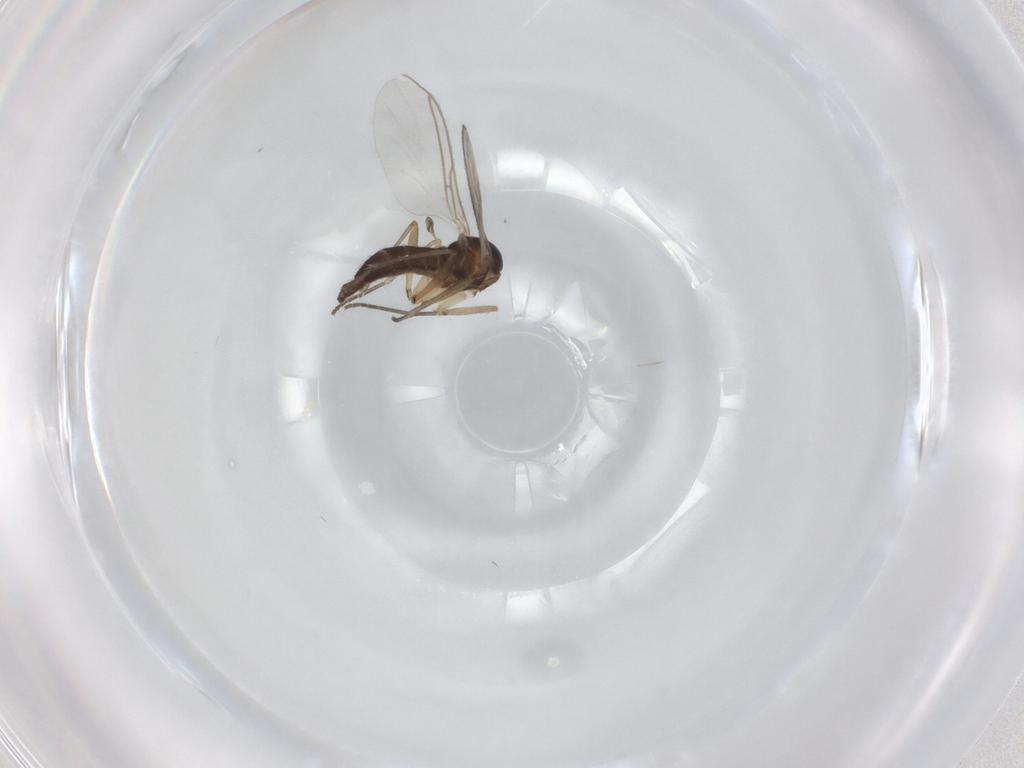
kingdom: Animalia
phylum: Arthropoda
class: Insecta
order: Diptera
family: Sciaridae
